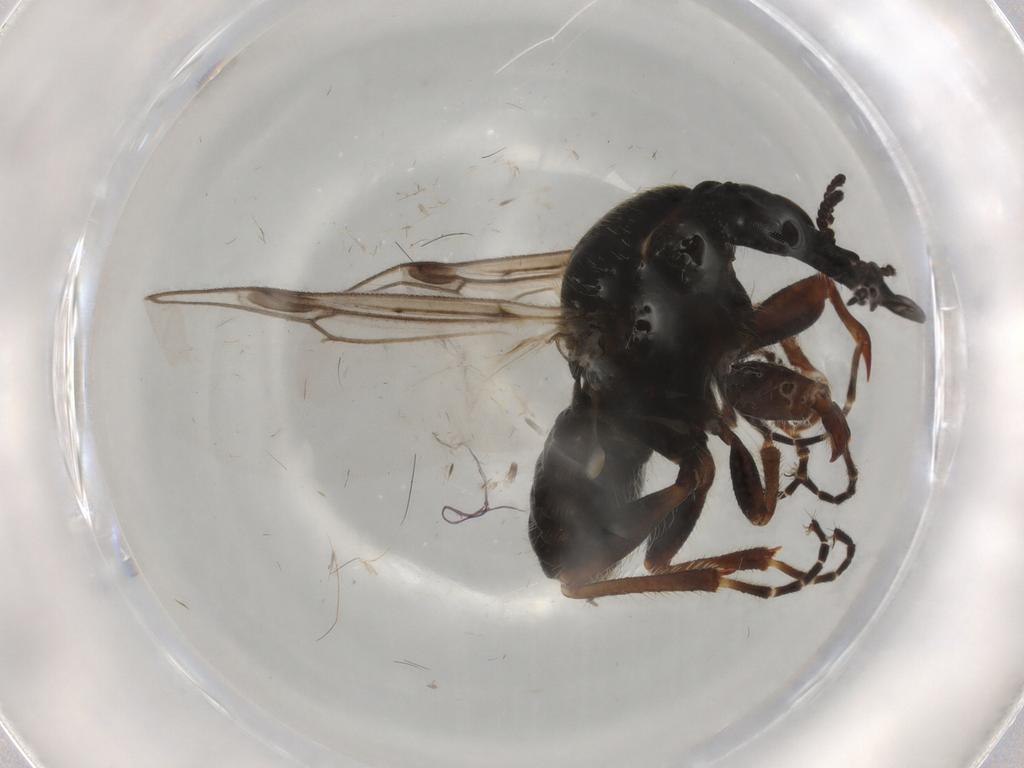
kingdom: Animalia
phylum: Arthropoda
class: Insecta
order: Diptera
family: Bibionidae
